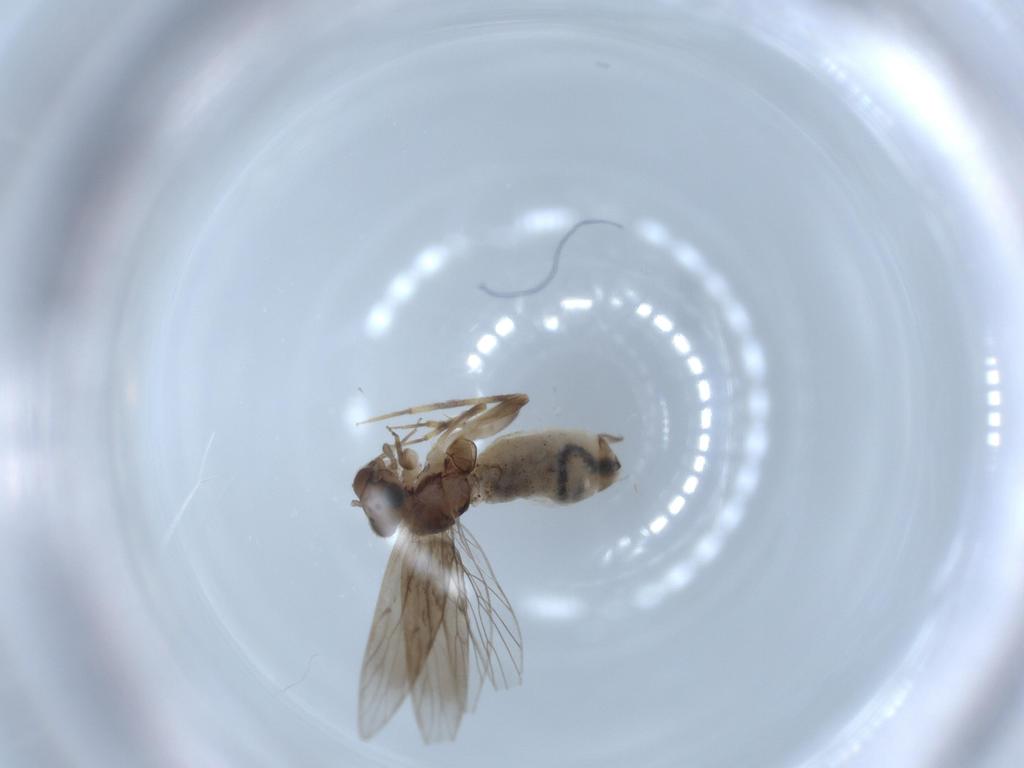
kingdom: Animalia
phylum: Arthropoda
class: Insecta
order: Psocodea
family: Lepidopsocidae
